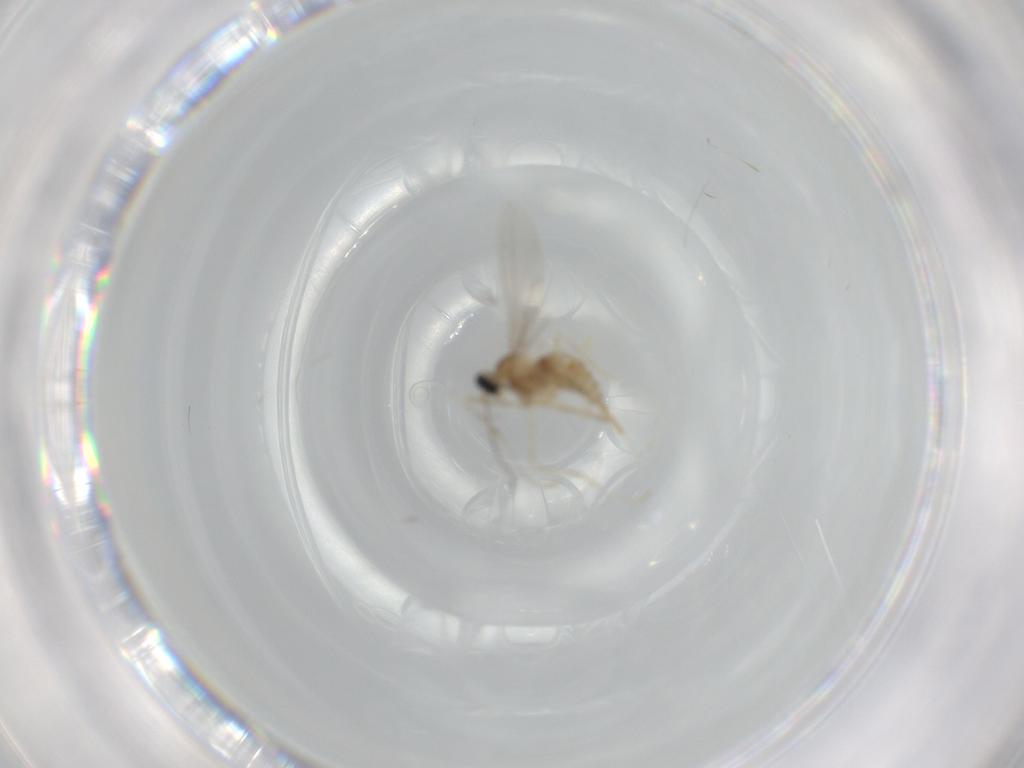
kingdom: Animalia
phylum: Arthropoda
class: Insecta
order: Diptera
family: Cecidomyiidae
